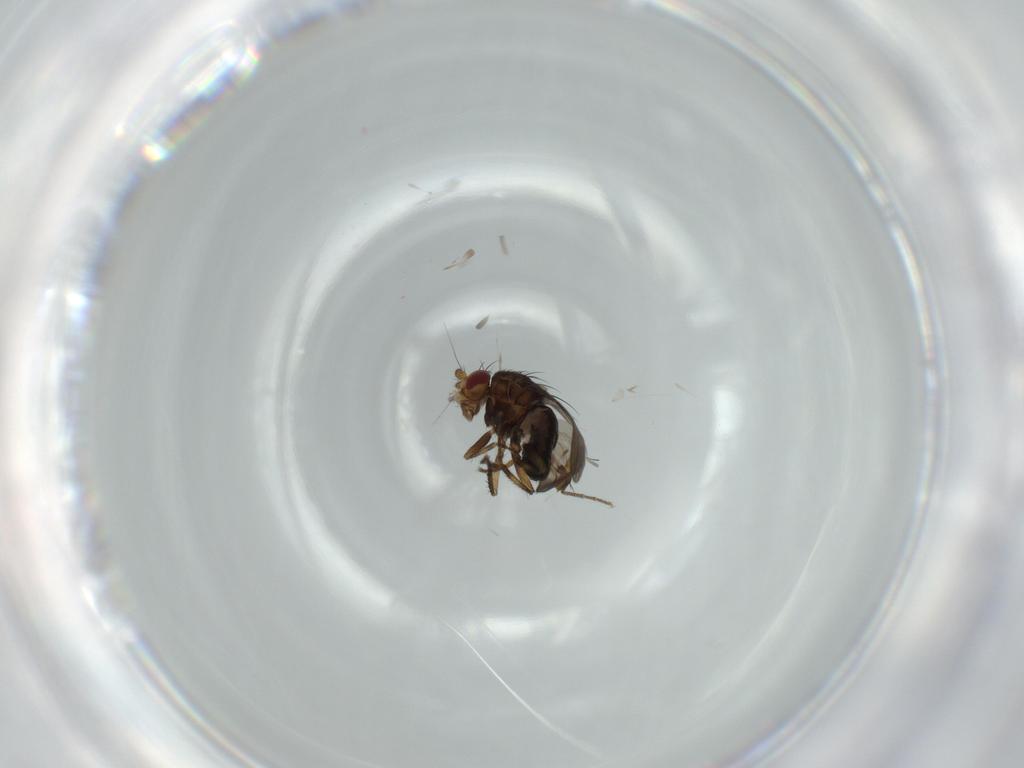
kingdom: Animalia
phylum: Arthropoda
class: Insecta
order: Diptera
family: Sphaeroceridae
